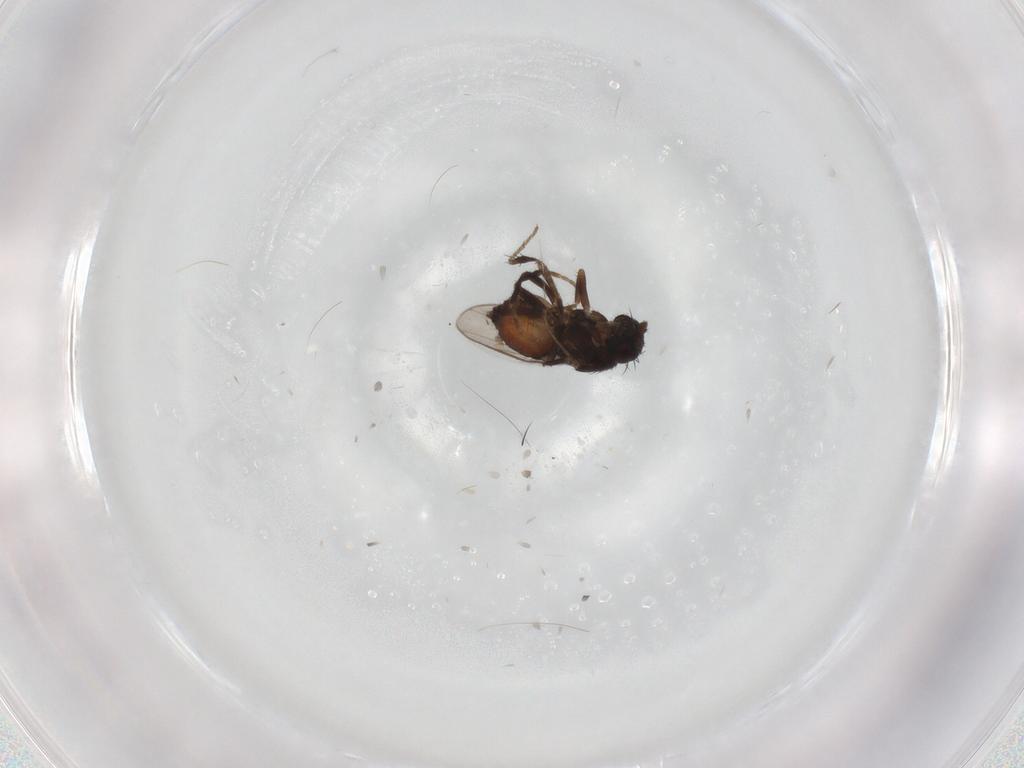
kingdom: Animalia
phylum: Arthropoda
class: Insecta
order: Diptera
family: Sphaeroceridae
